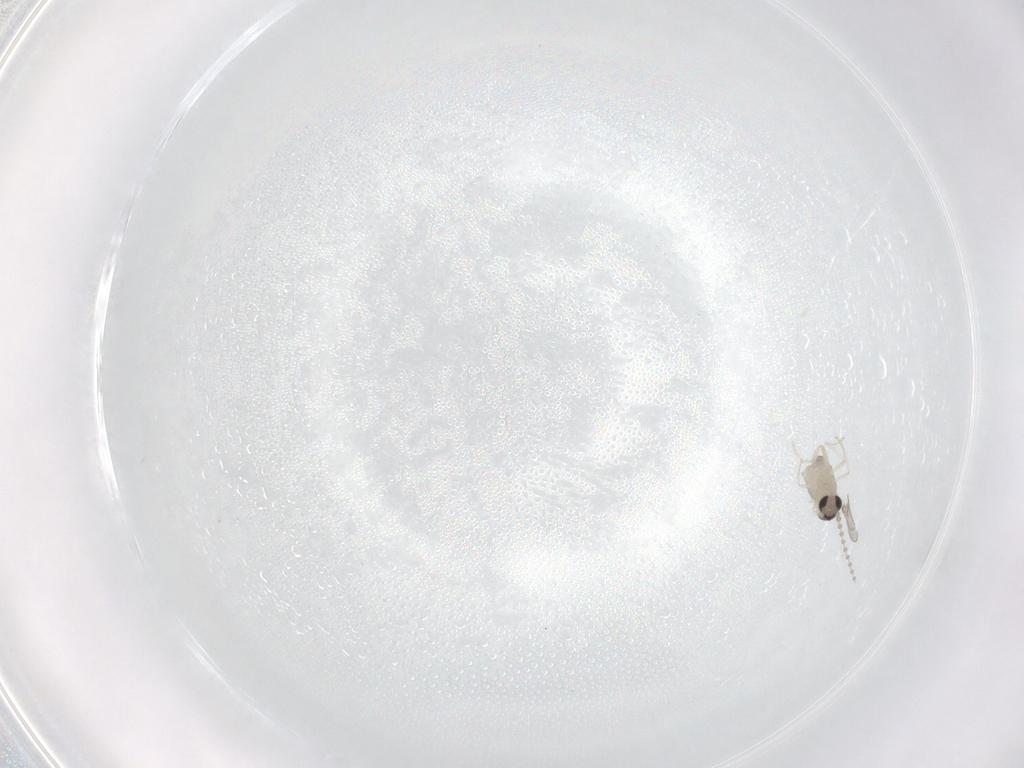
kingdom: Animalia
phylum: Arthropoda
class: Insecta
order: Diptera
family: Cecidomyiidae
